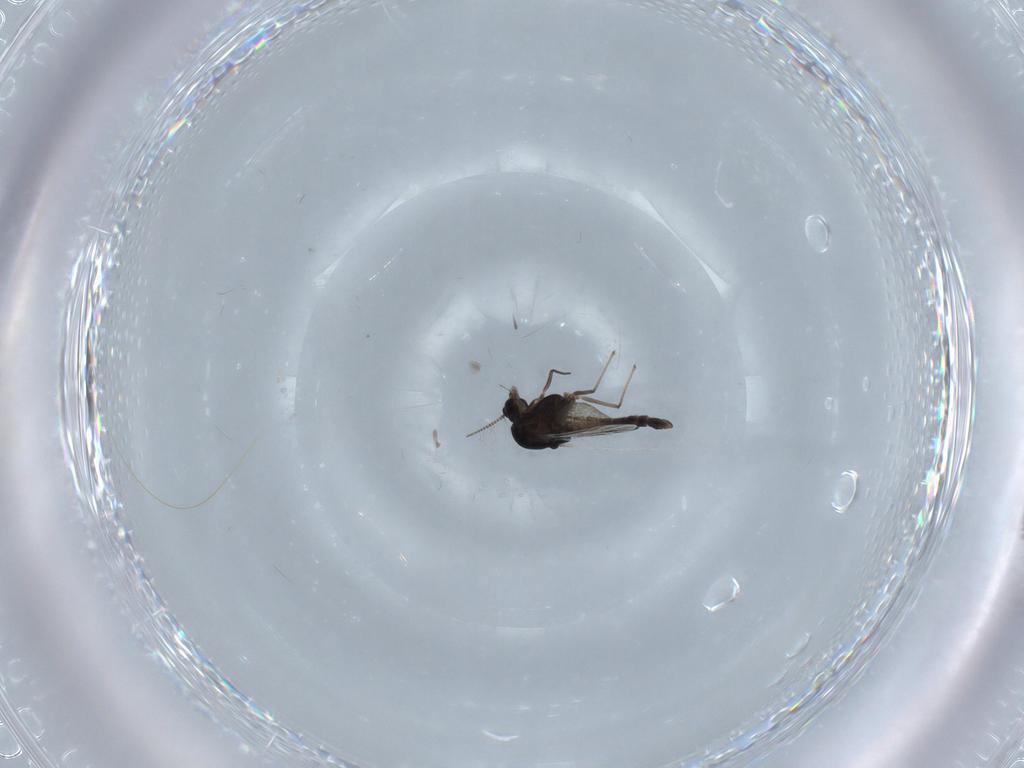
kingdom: Animalia
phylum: Arthropoda
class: Insecta
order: Diptera
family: Chironomidae
